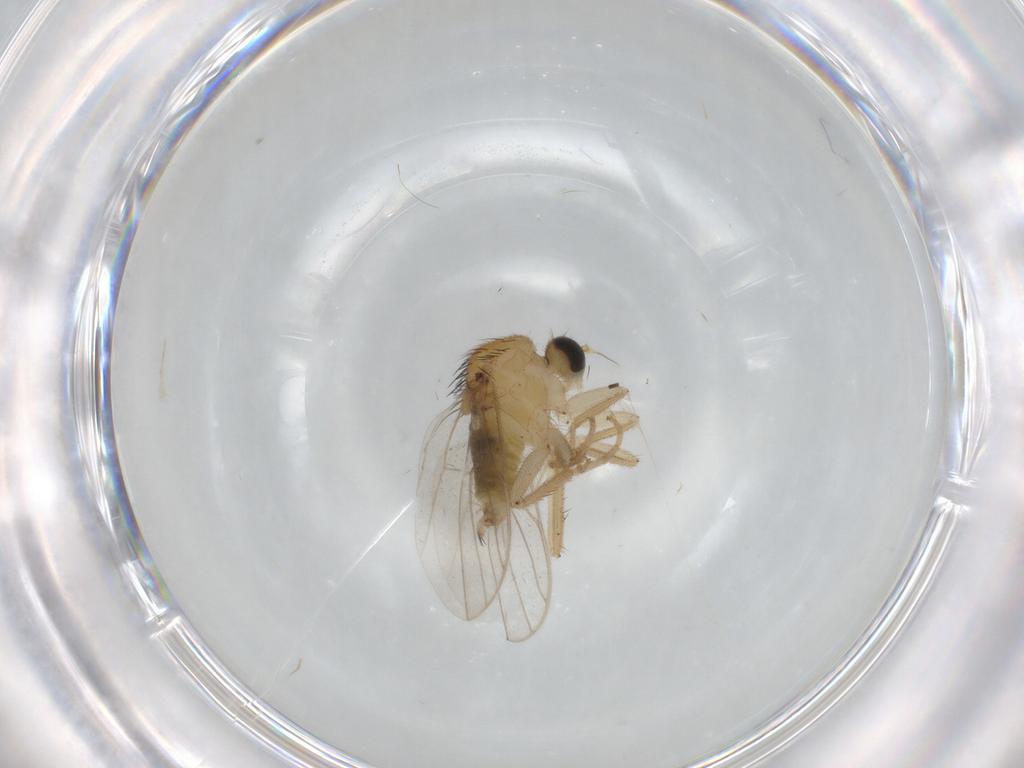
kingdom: Animalia
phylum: Arthropoda
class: Insecta
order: Diptera
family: Hybotidae
